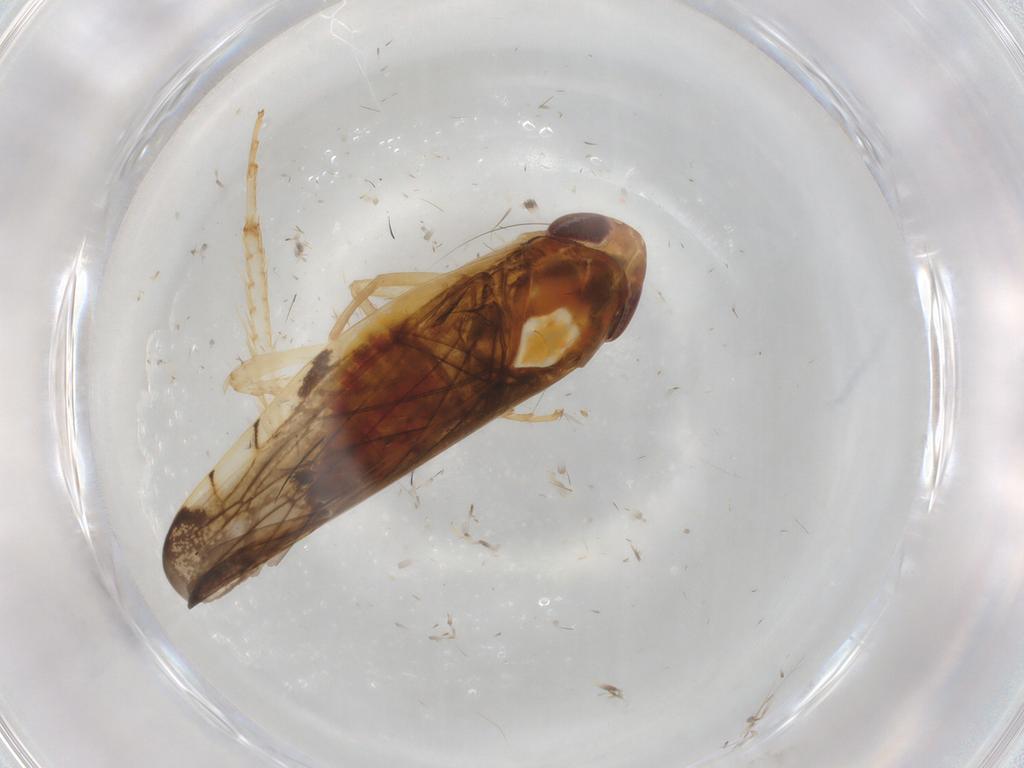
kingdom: Animalia
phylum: Arthropoda
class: Insecta
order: Hemiptera
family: Cicadellidae
